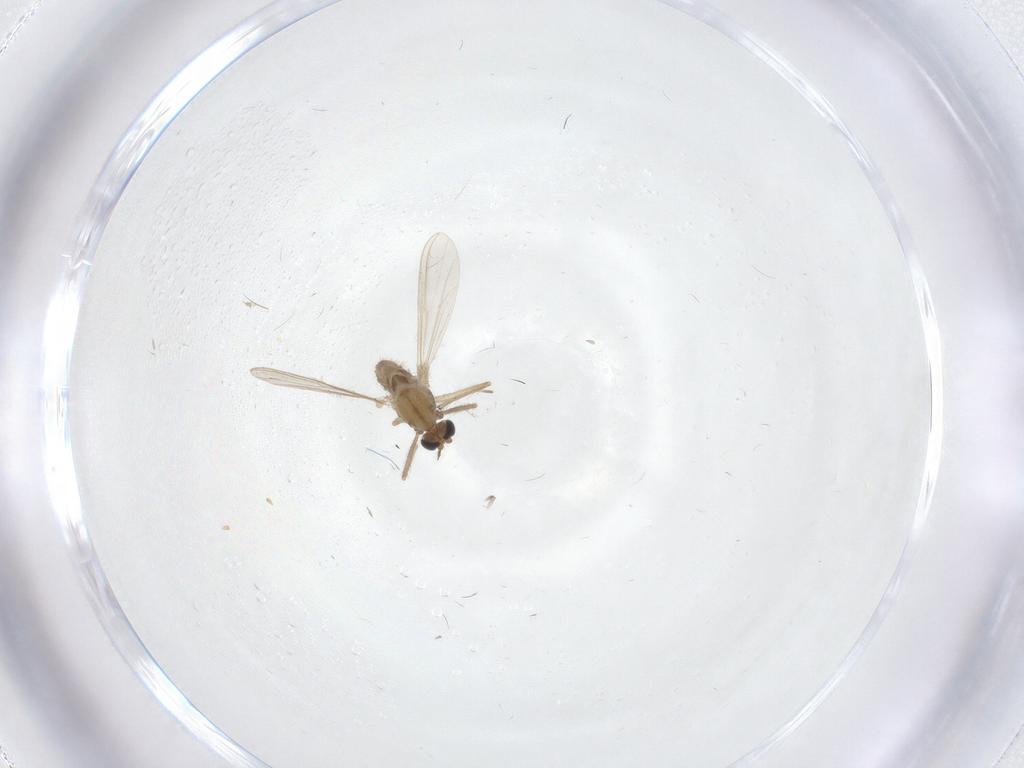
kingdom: Animalia
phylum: Arthropoda
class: Insecta
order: Diptera
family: Chironomidae
